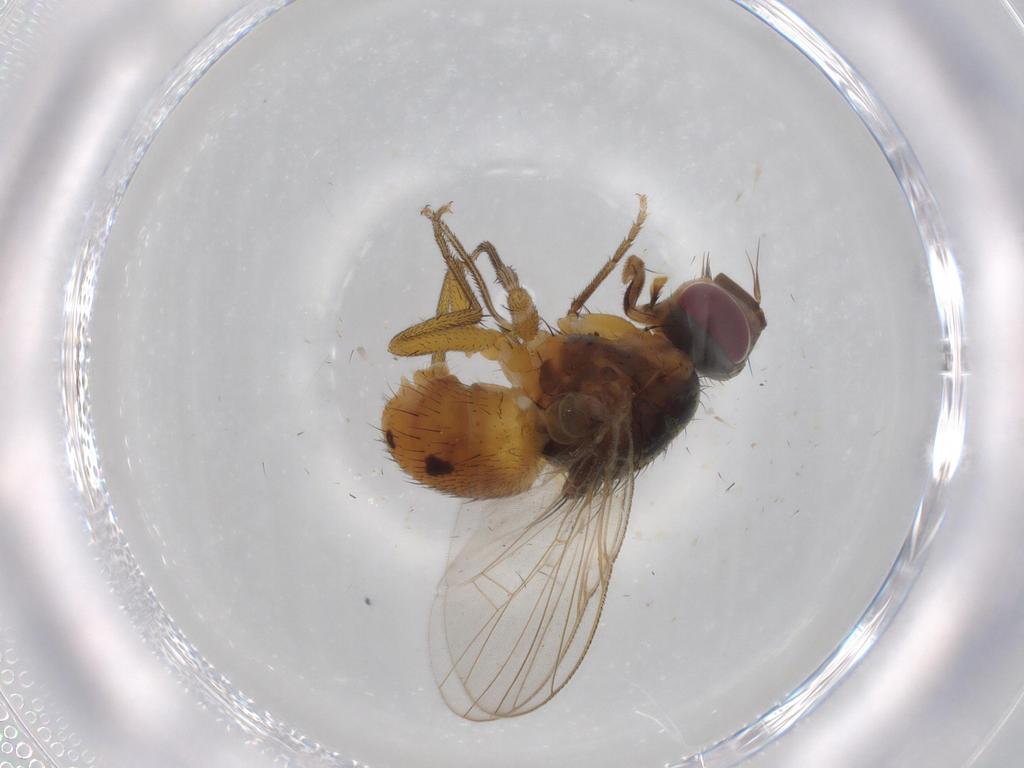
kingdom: Animalia
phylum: Arthropoda
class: Insecta
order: Diptera
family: Muscidae
